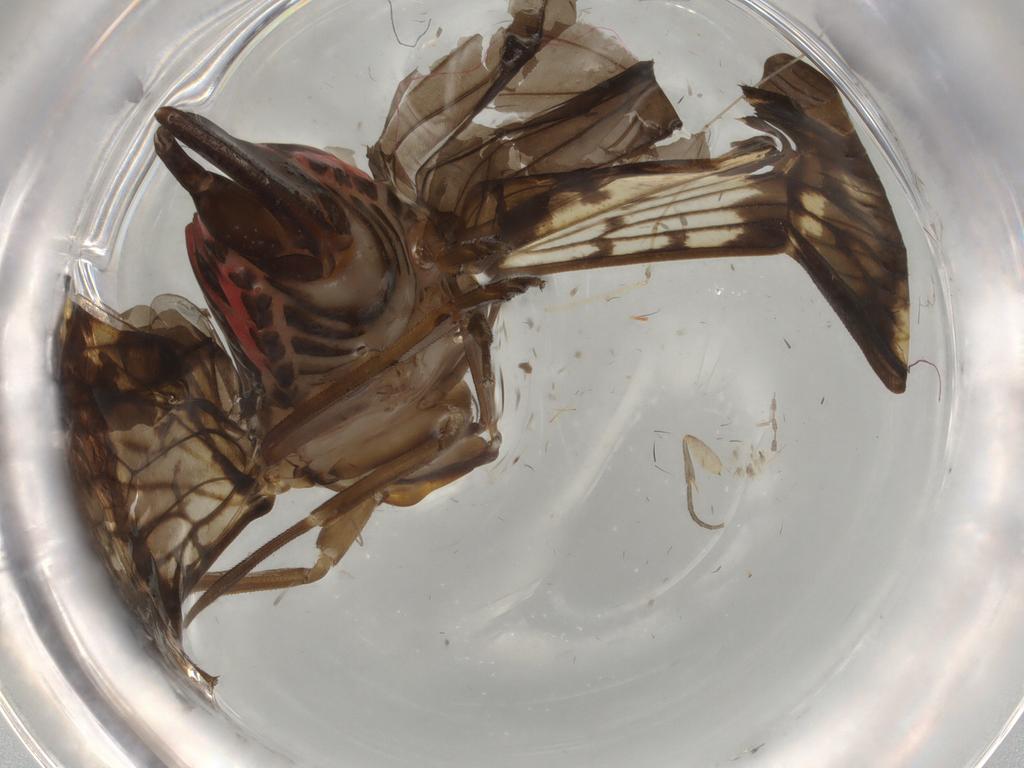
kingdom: Animalia
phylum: Arthropoda
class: Insecta
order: Hemiptera
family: Cixiidae
